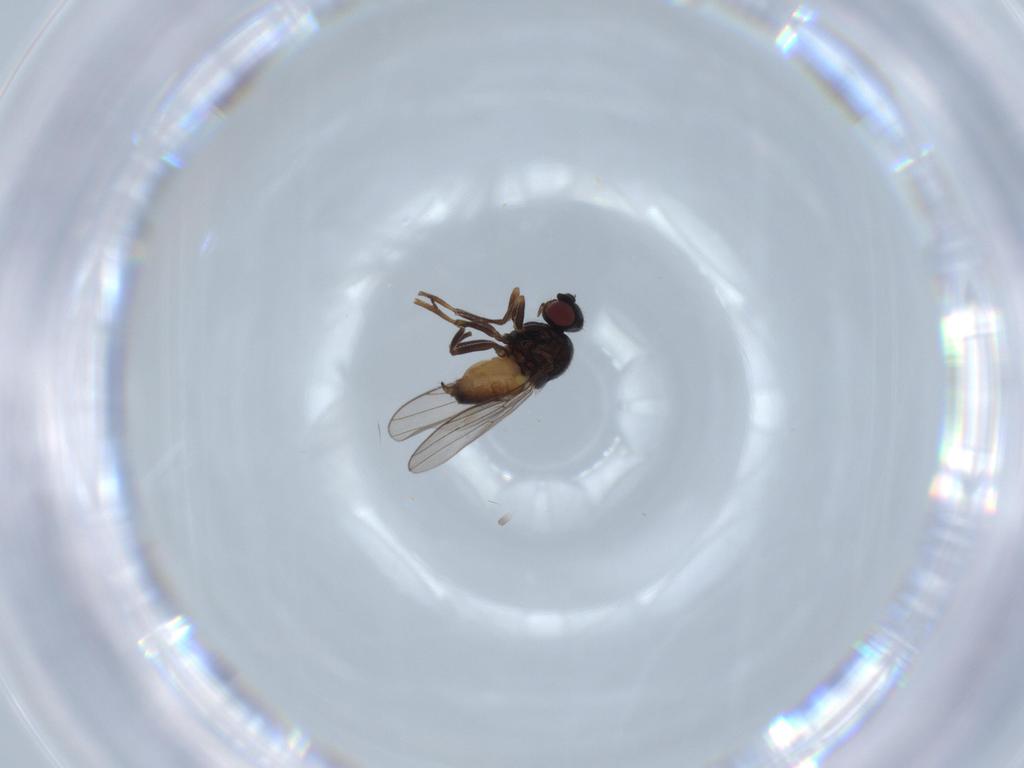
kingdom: Animalia
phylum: Arthropoda
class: Insecta
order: Diptera
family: Chloropidae
